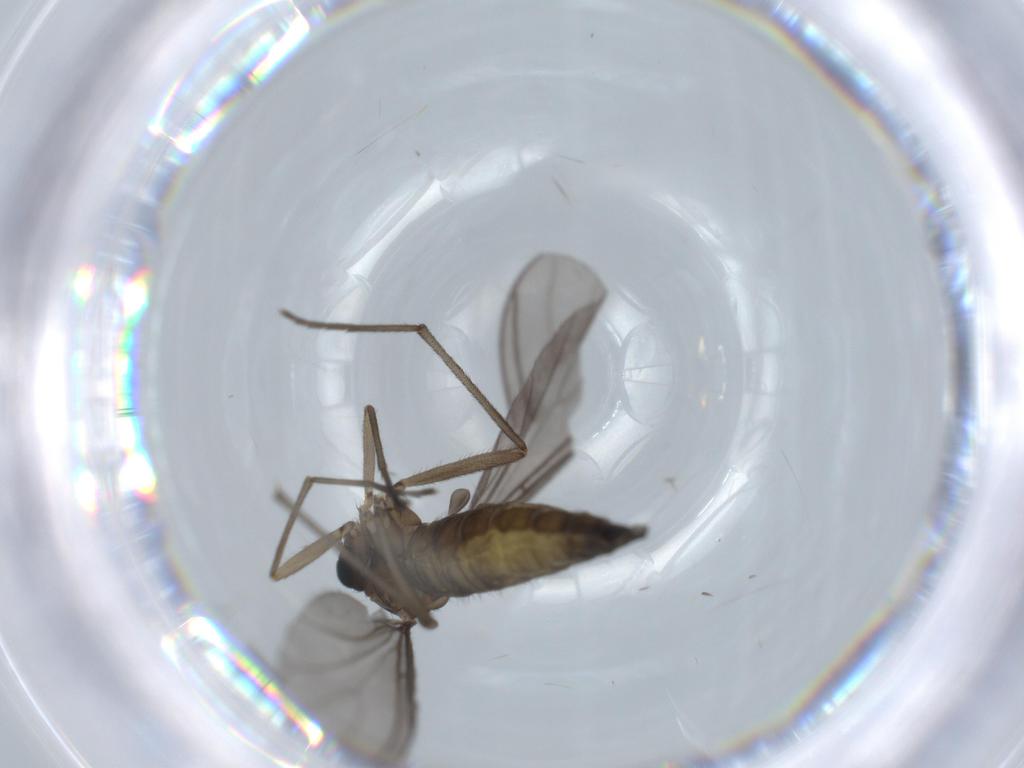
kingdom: Animalia
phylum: Arthropoda
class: Insecta
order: Diptera
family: Sciaridae
